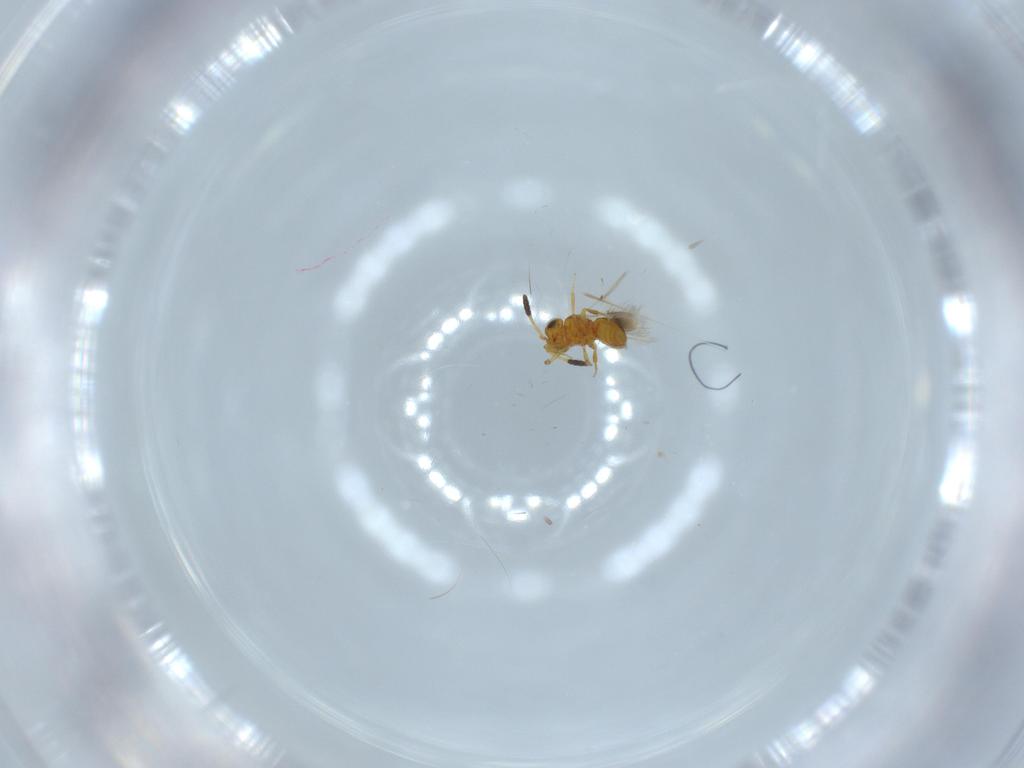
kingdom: Animalia
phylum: Arthropoda
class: Insecta
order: Hymenoptera
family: Scelionidae
